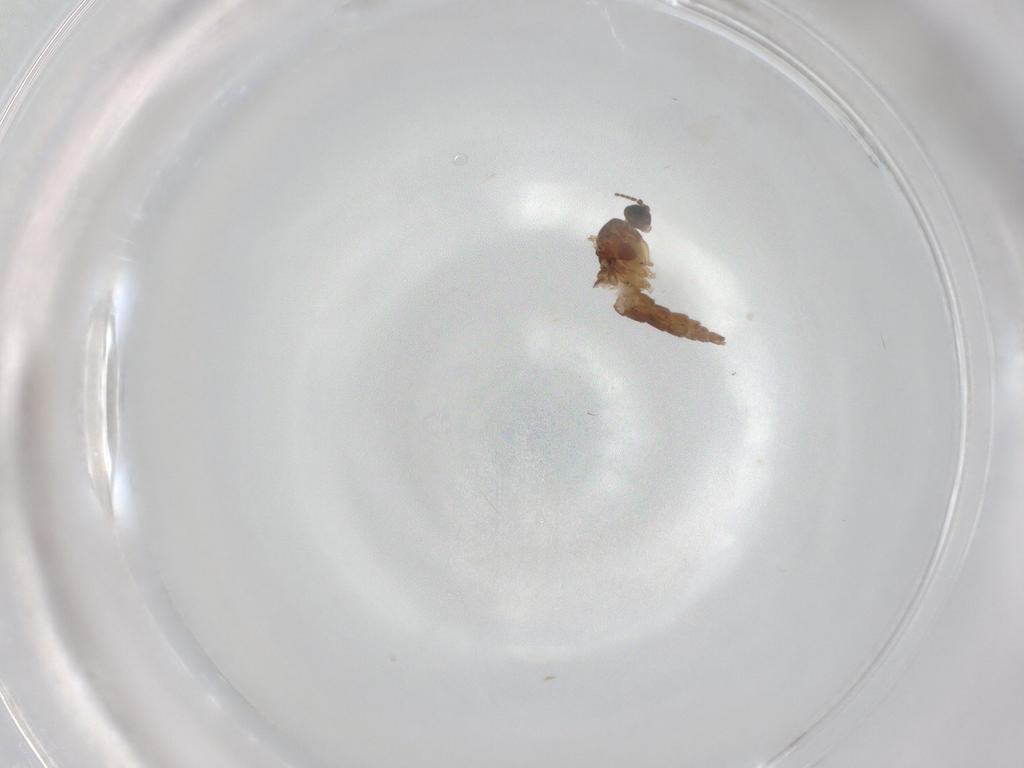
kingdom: Animalia
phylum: Arthropoda
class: Insecta
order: Diptera
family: Sciaridae
